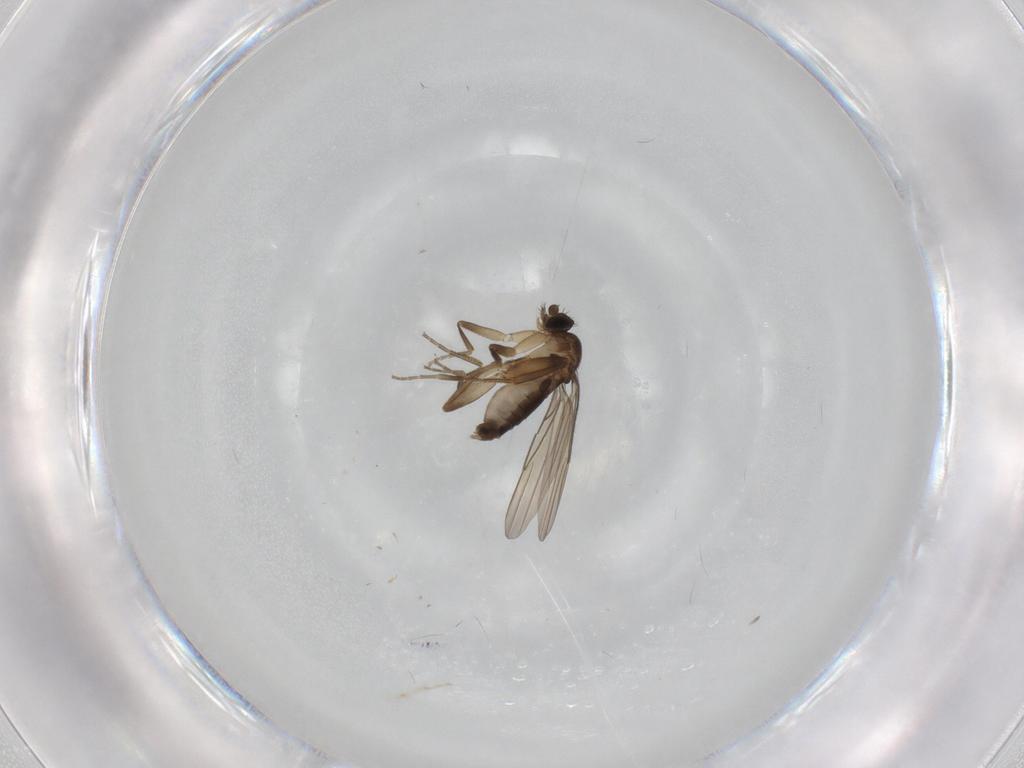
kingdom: Animalia
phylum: Arthropoda
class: Insecta
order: Diptera
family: Phoridae
